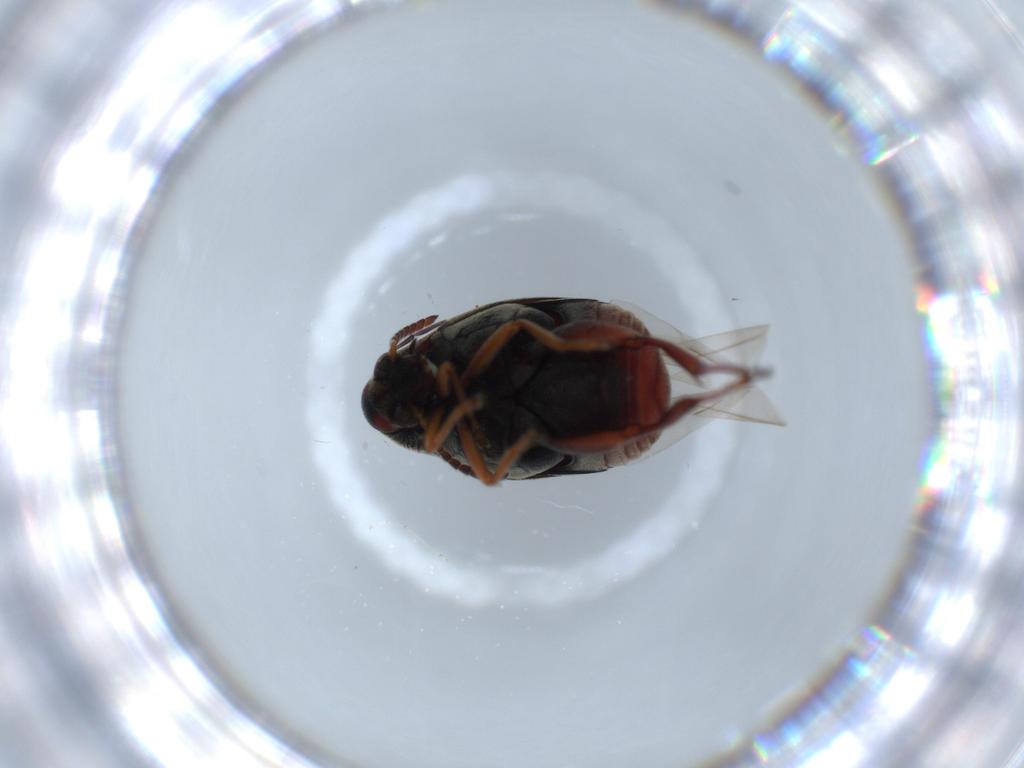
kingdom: Animalia
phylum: Arthropoda
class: Insecta
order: Coleoptera
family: Chrysomelidae
